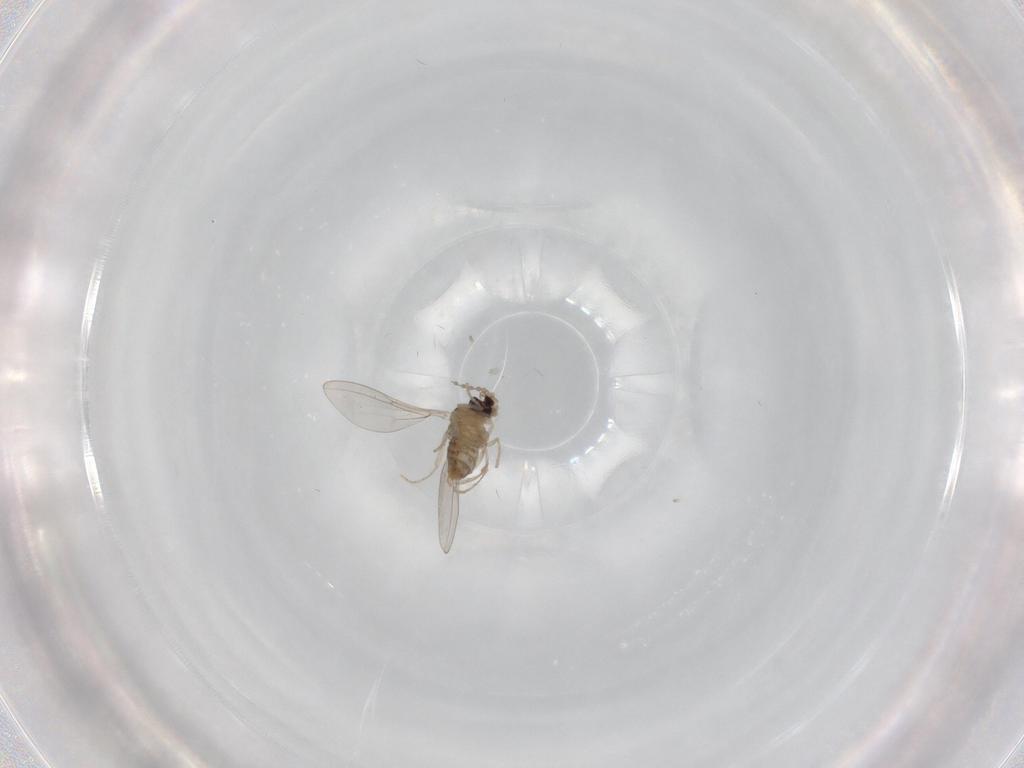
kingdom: Animalia
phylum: Arthropoda
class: Insecta
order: Diptera
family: Cecidomyiidae
